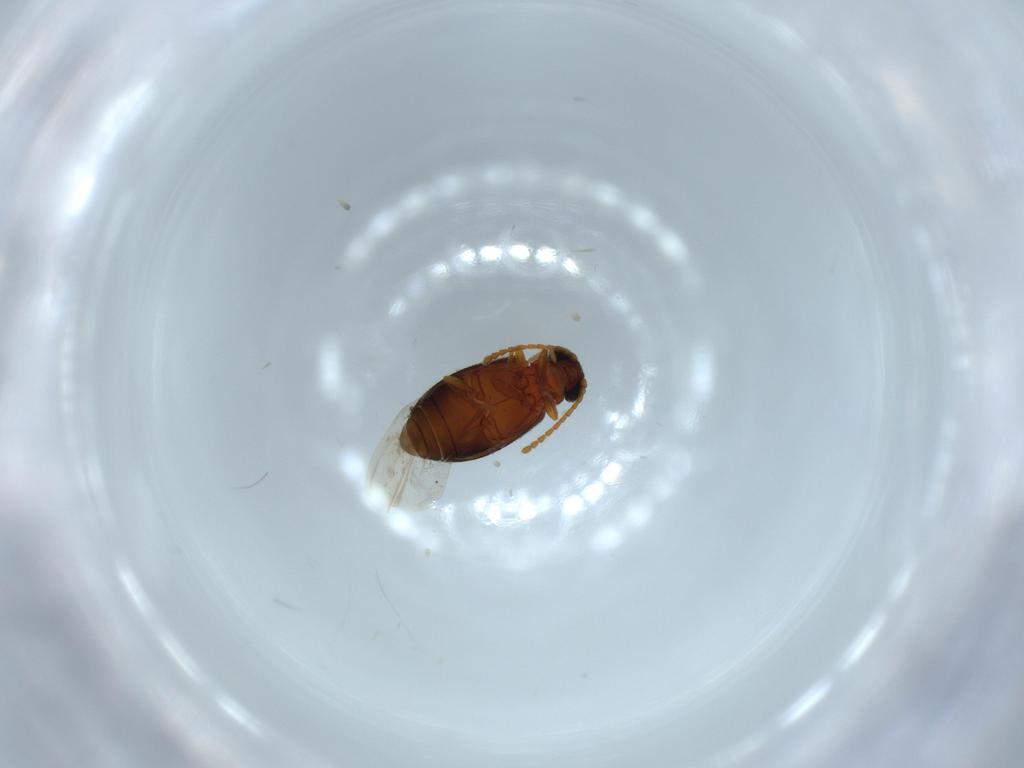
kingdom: Animalia
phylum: Arthropoda
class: Insecta
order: Coleoptera
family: Aderidae
